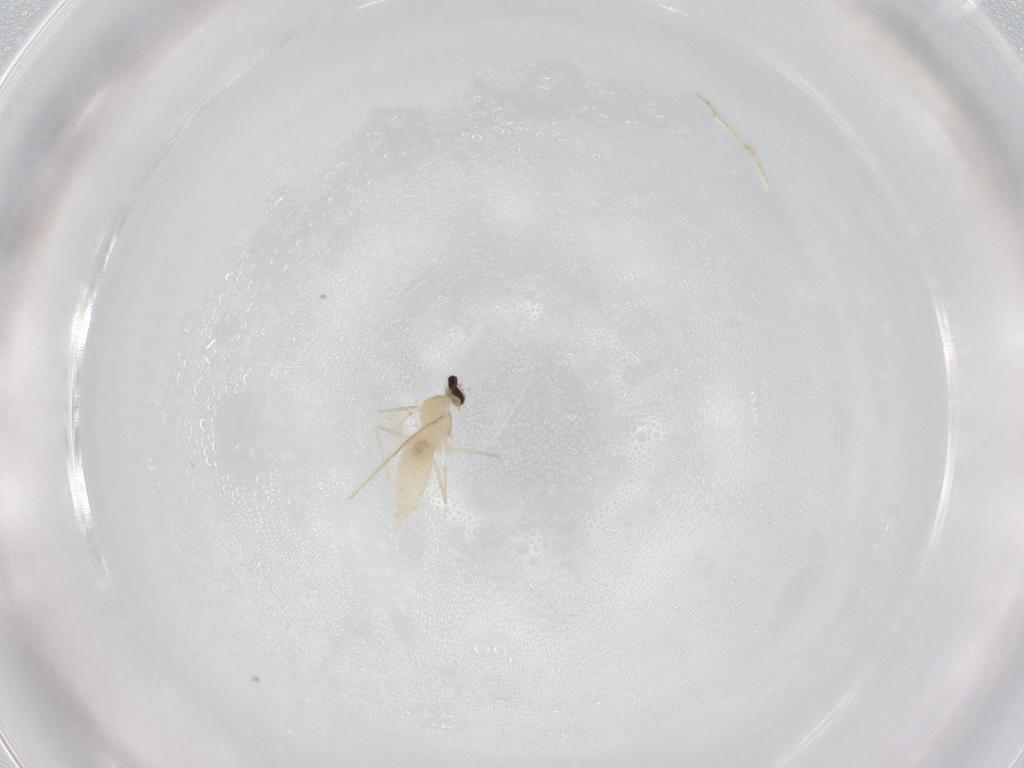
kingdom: Animalia
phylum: Arthropoda
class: Insecta
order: Diptera
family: Cecidomyiidae
